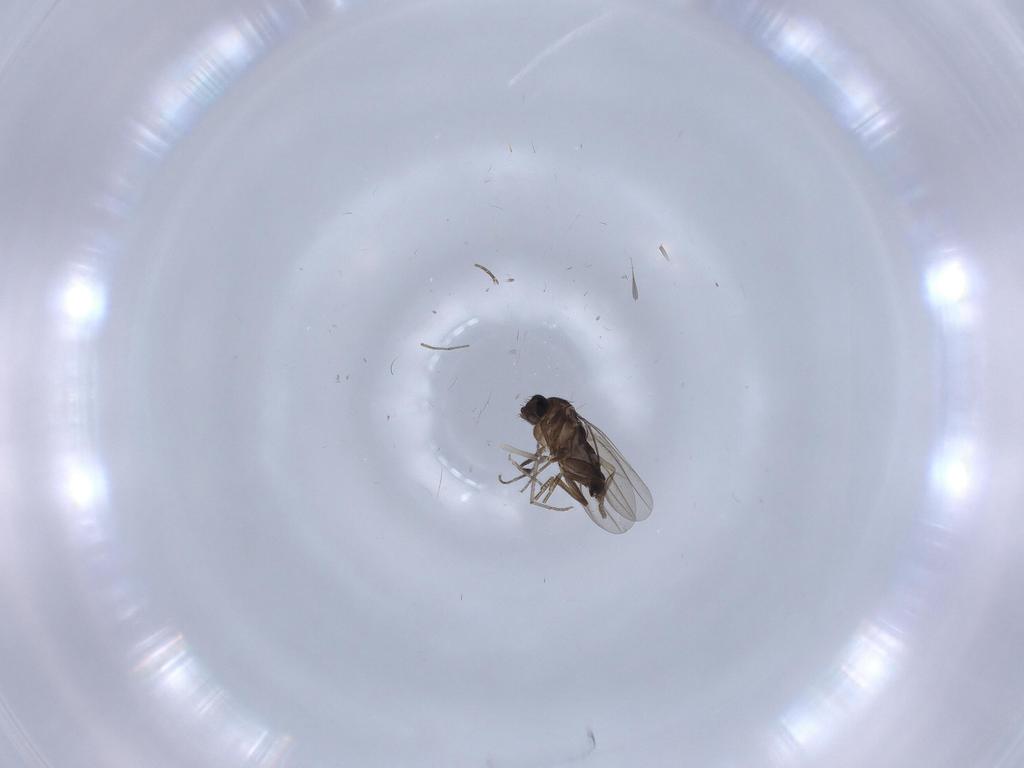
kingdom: Animalia
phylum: Arthropoda
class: Insecta
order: Diptera
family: Phoridae
